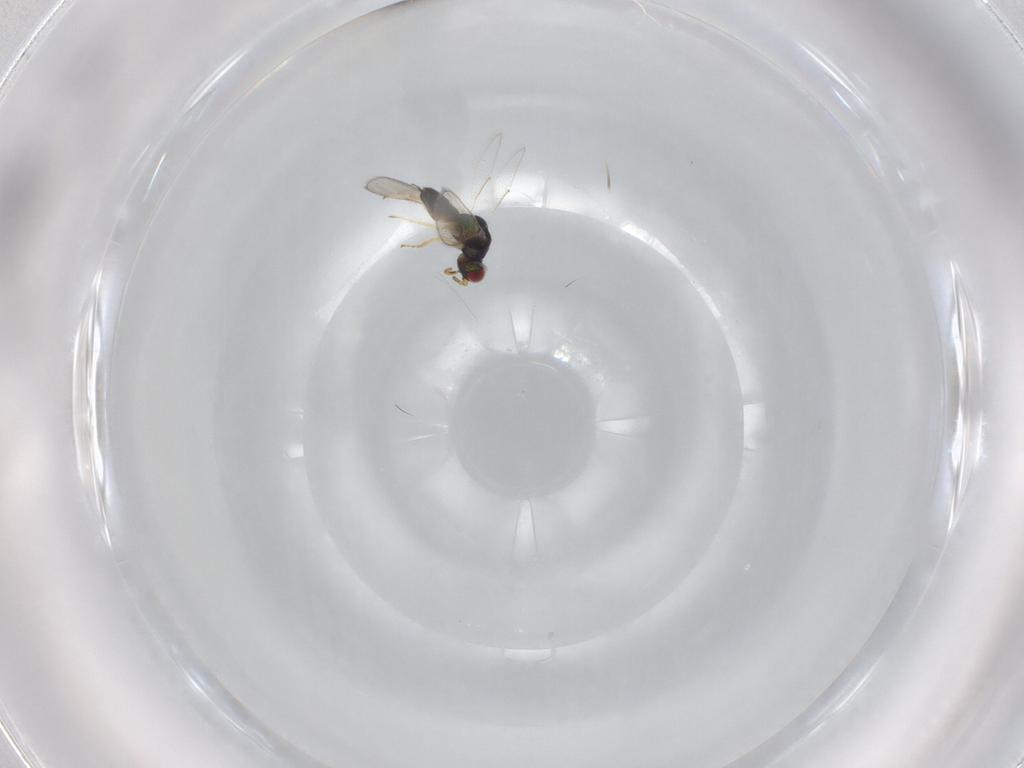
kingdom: Animalia
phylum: Arthropoda
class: Insecta
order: Hymenoptera
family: Eulophidae
